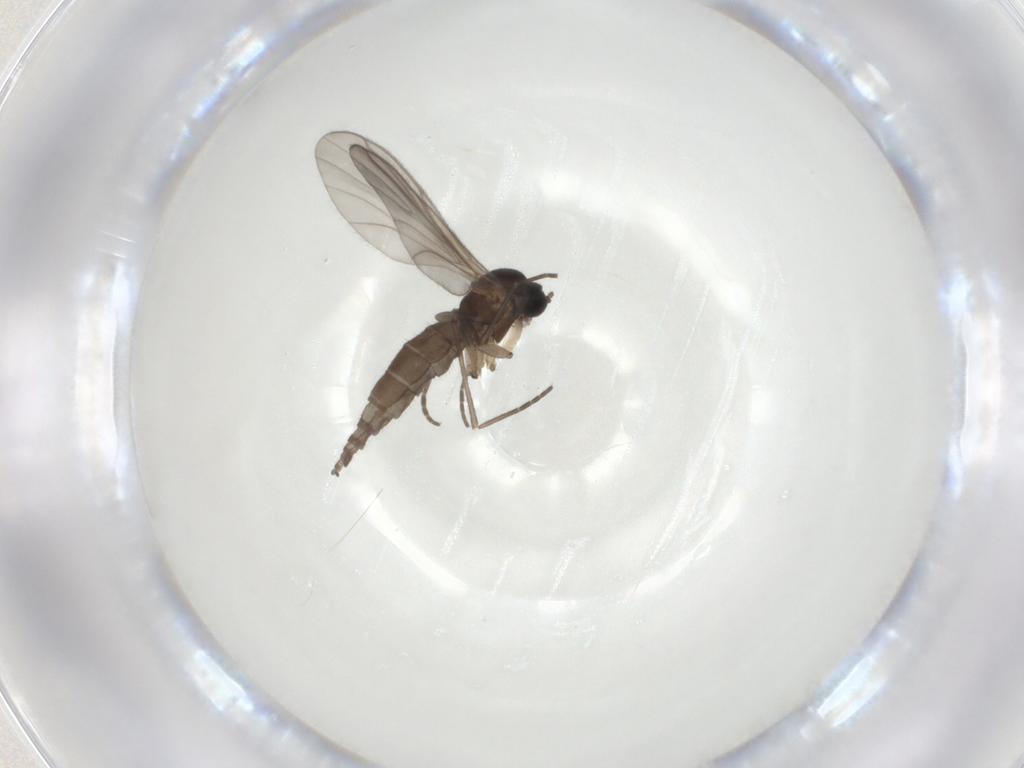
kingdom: Animalia
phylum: Arthropoda
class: Insecta
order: Diptera
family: Sciaridae
